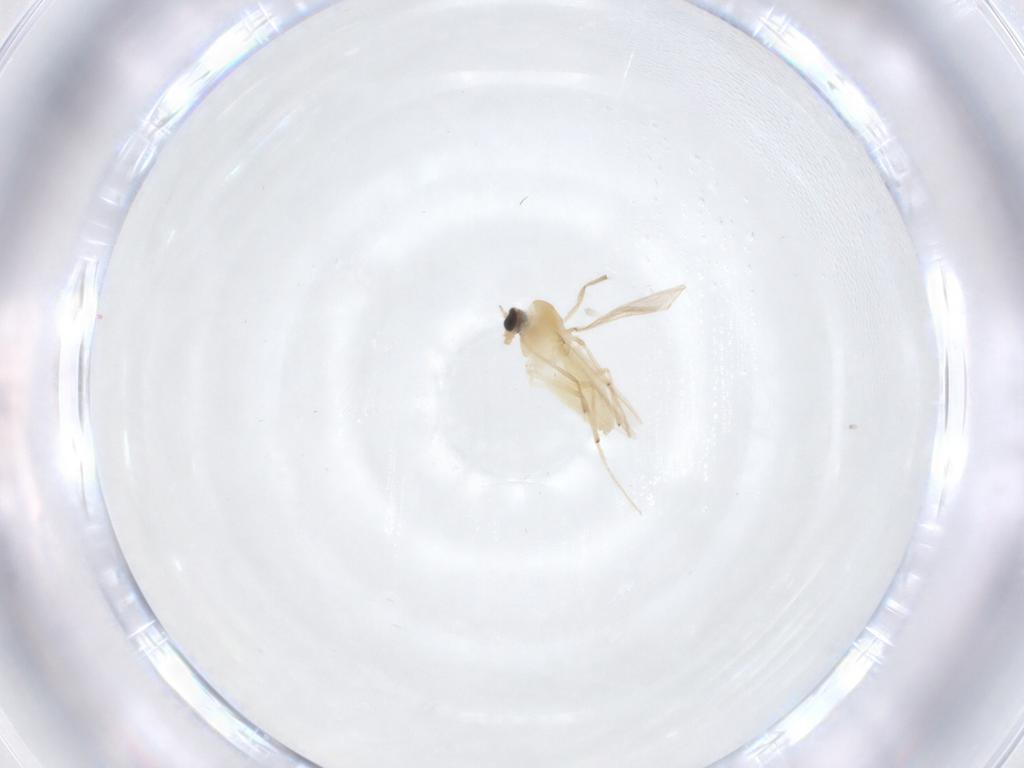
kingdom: Animalia
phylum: Arthropoda
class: Insecta
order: Diptera
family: Chironomidae
